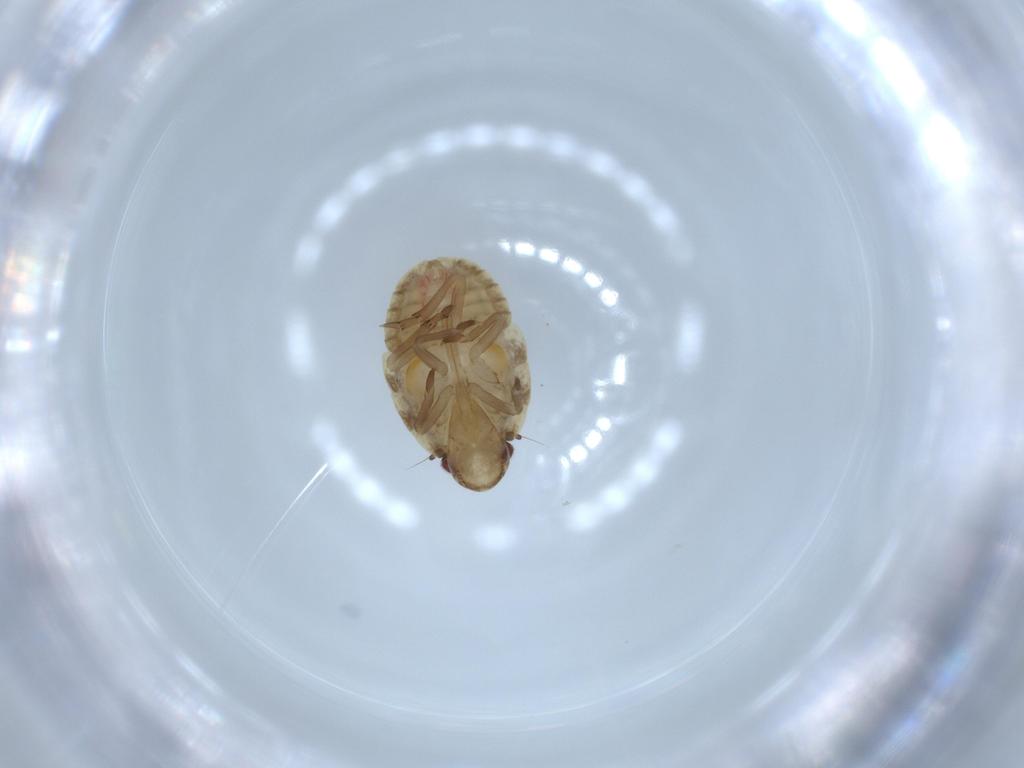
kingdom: Animalia
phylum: Arthropoda
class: Insecta
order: Hemiptera
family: Flatidae
